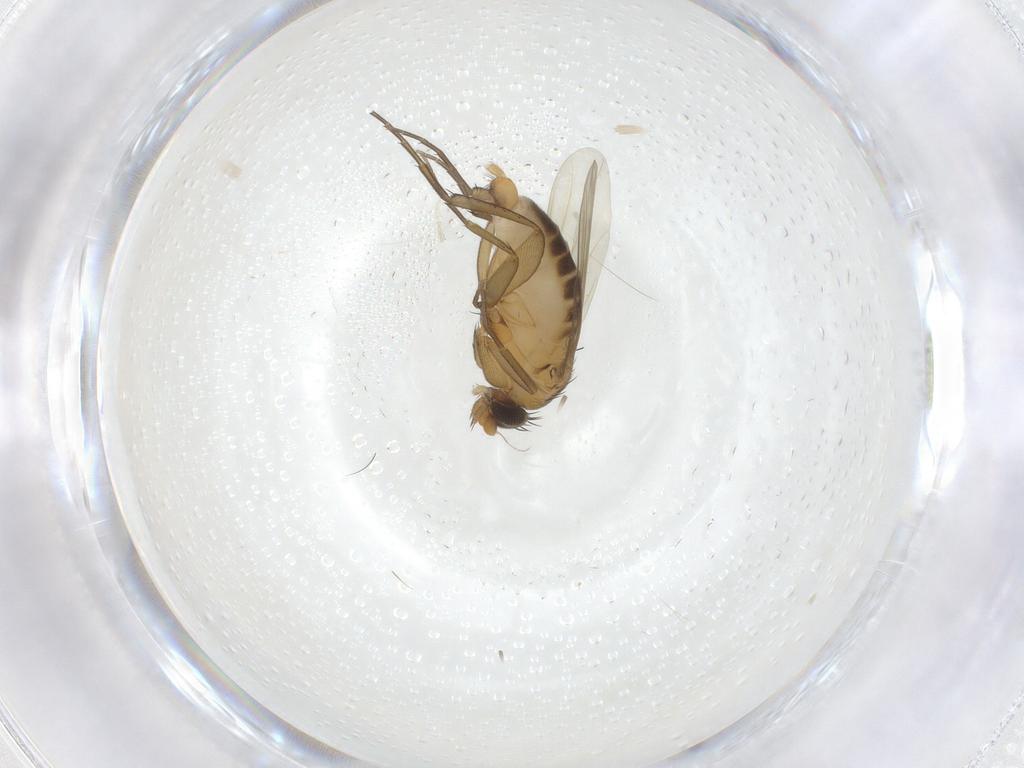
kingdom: Animalia
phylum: Arthropoda
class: Insecta
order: Diptera
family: Phoridae
